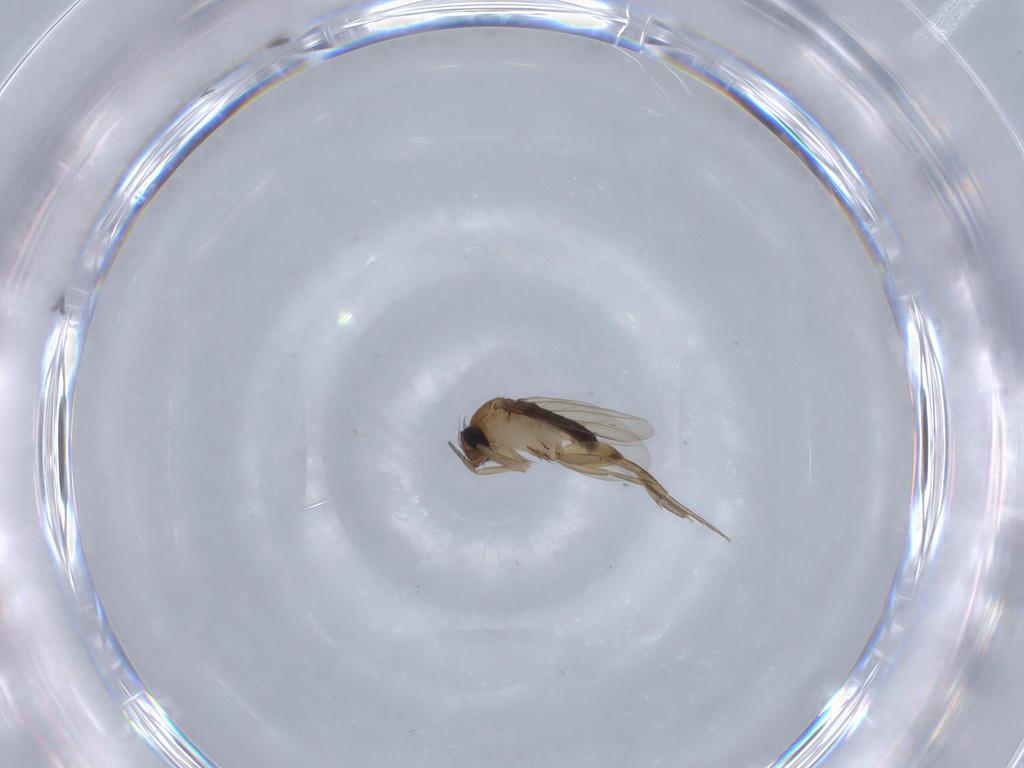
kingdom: Animalia
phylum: Arthropoda
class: Insecta
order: Diptera
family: Phoridae
